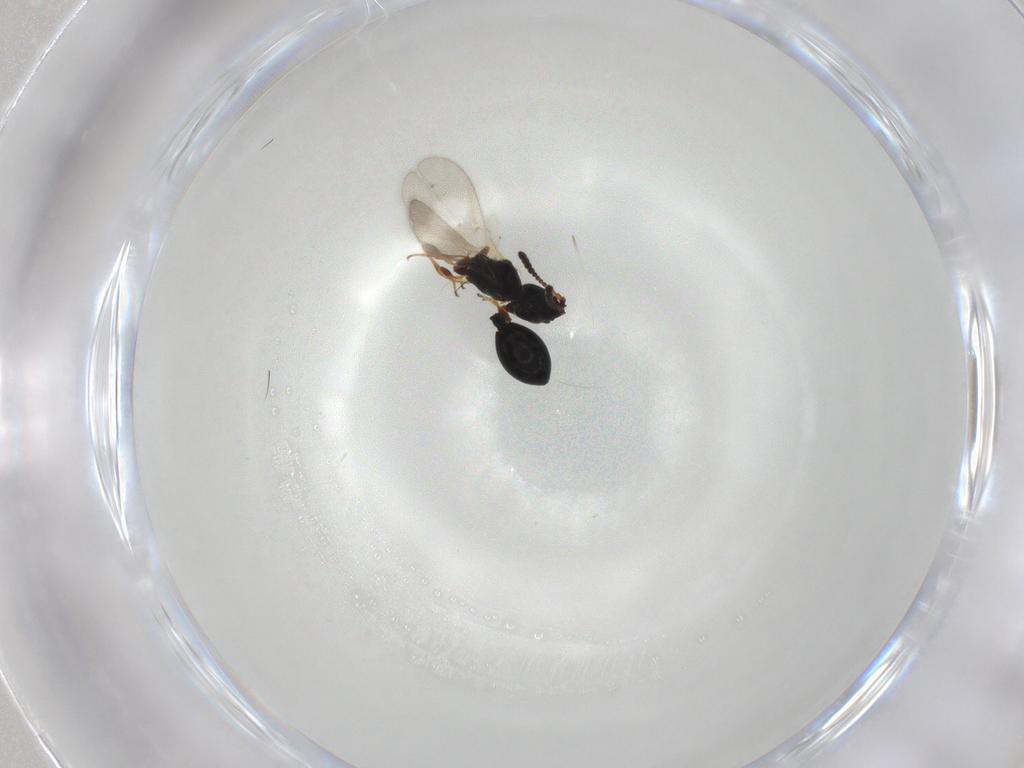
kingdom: Animalia
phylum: Arthropoda
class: Insecta
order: Hymenoptera
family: Diapriidae
